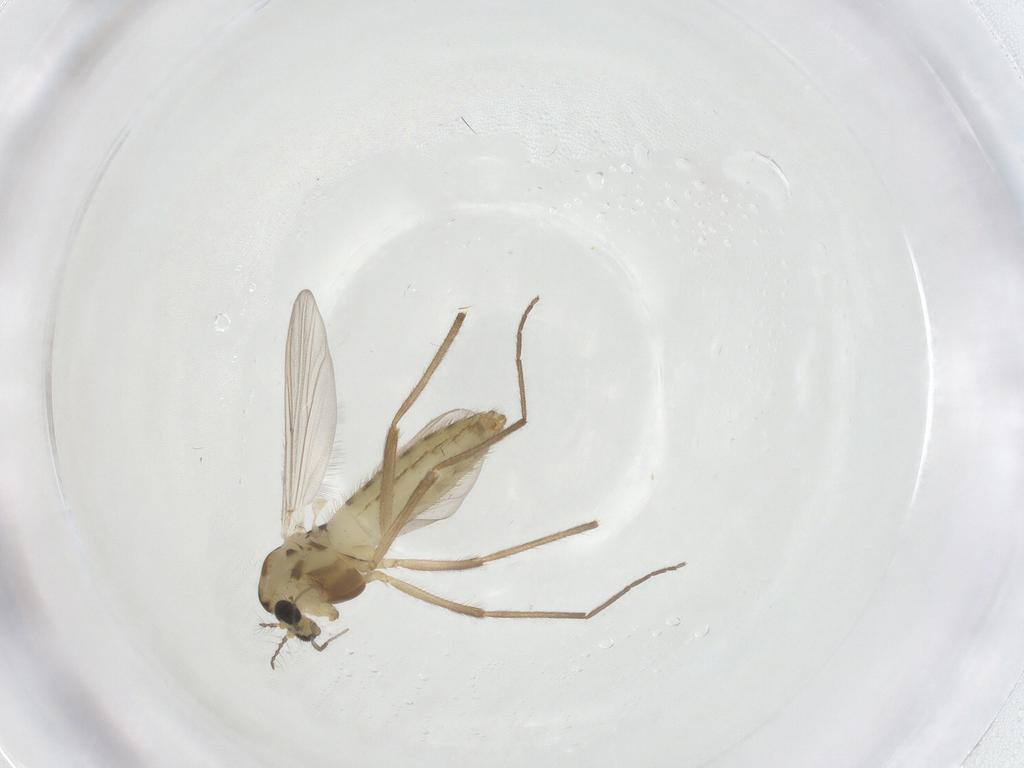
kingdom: Animalia
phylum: Arthropoda
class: Insecta
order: Diptera
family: Chironomidae
